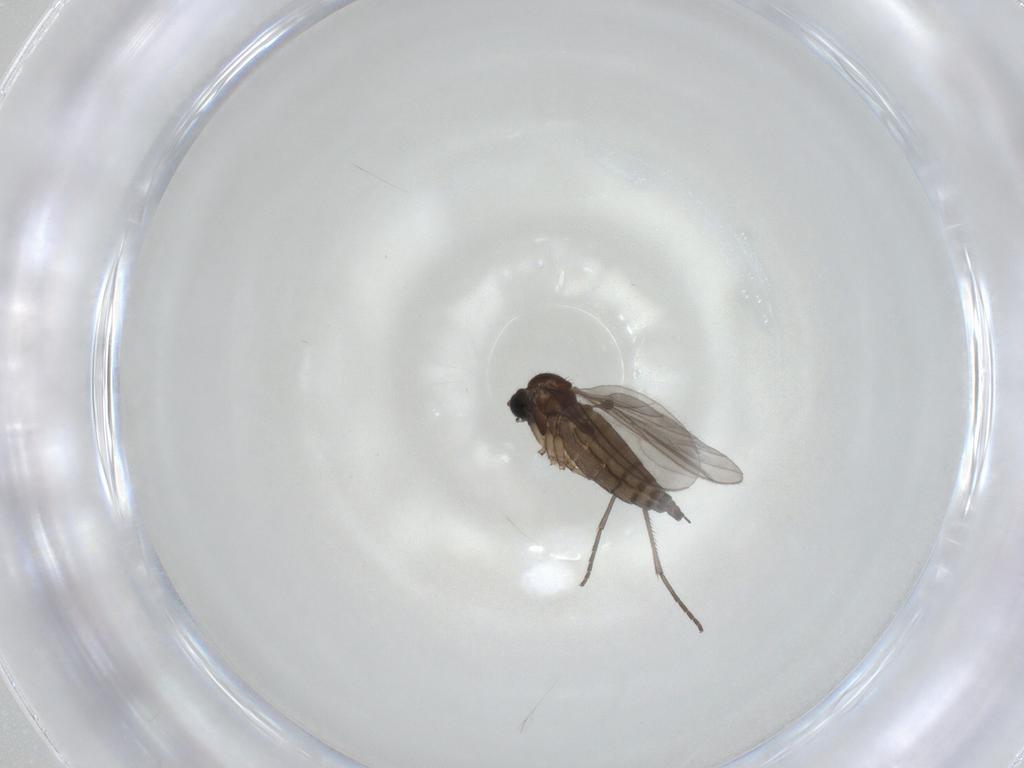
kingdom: Animalia
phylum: Arthropoda
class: Insecta
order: Diptera
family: Sciaridae
